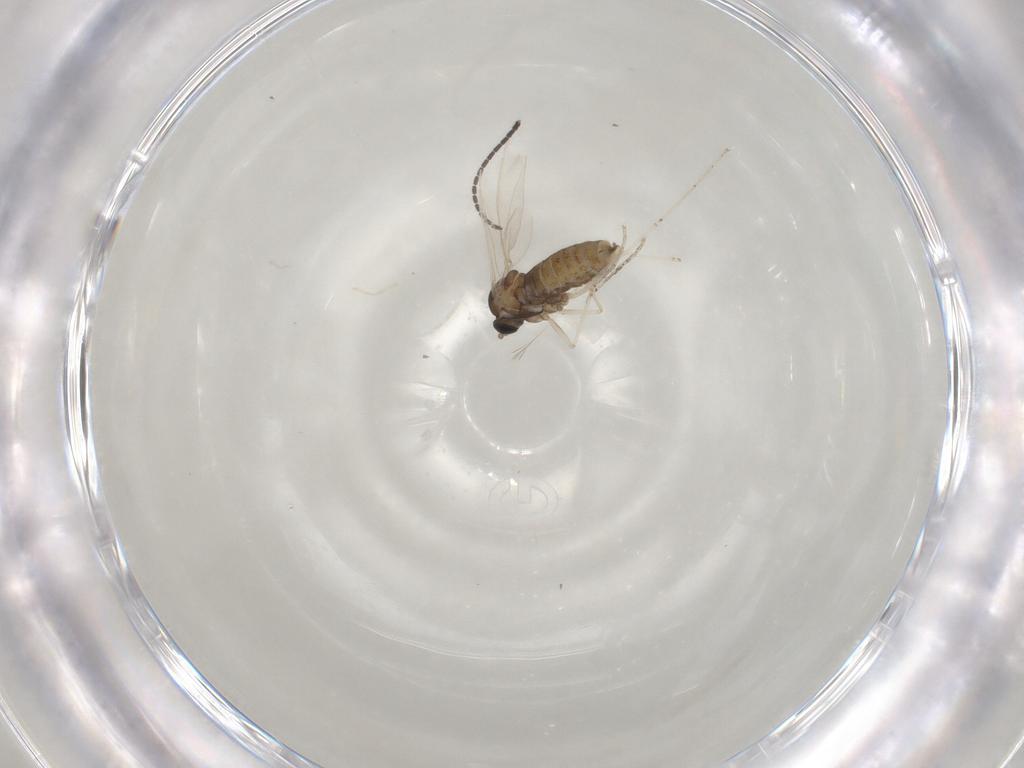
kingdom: Animalia
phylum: Arthropoda
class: Insecta
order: Diptera
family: Cecidomyiidae
